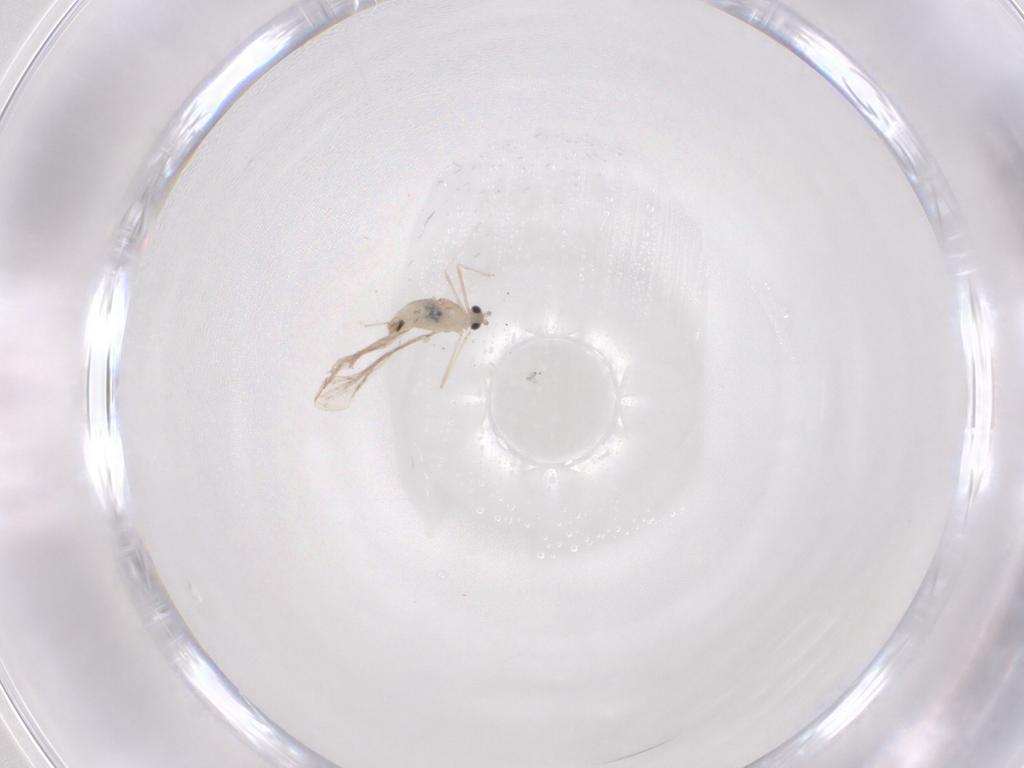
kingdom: Animalia
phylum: Arthropoda
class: Insecta
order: Diptera
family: Cecidomyiidae
